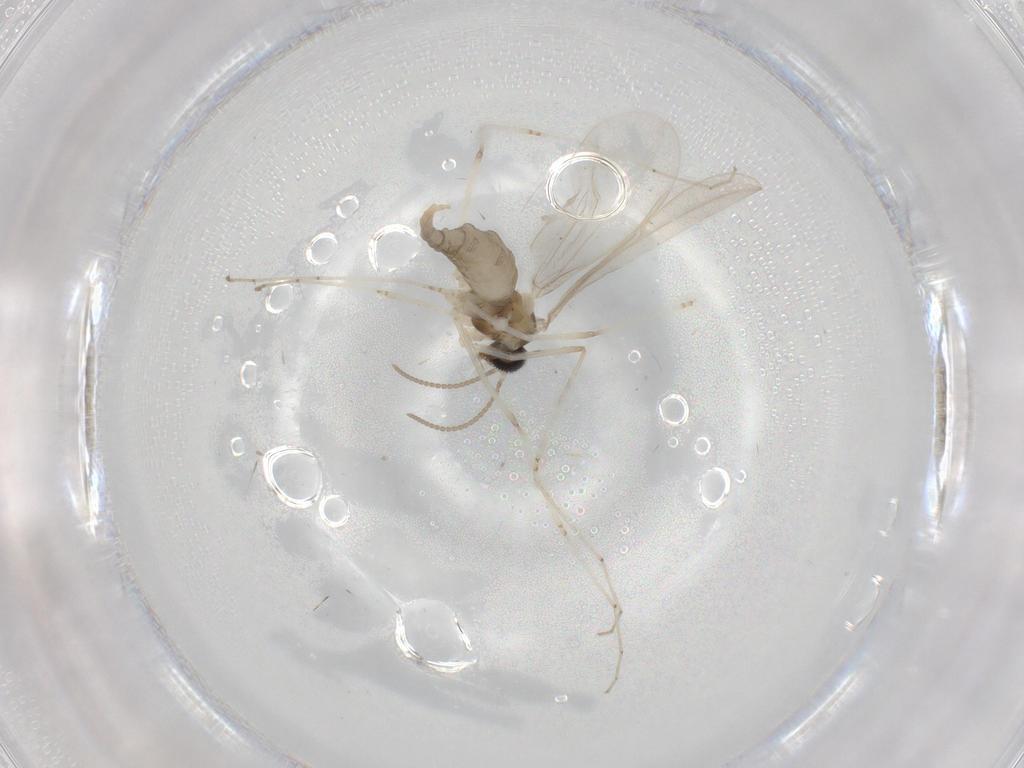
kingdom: Animalia
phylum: Arthropoda
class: Insecta
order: Diptera
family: Cecidomyiidae
